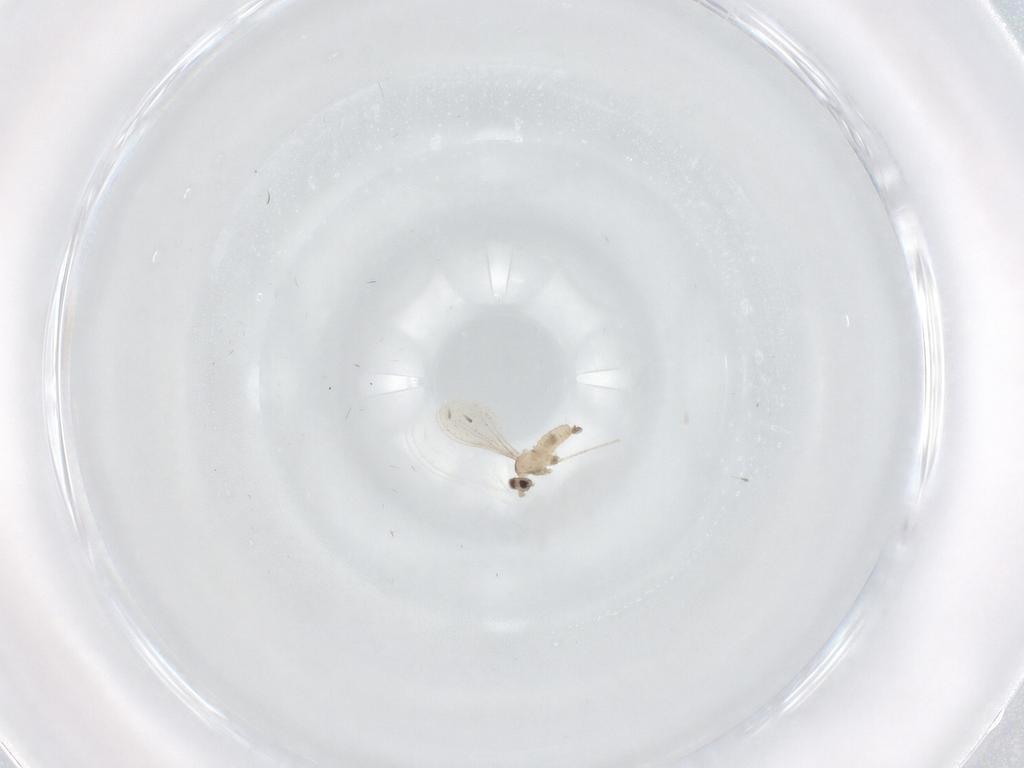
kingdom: Animalia
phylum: Arthropoda
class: Insecta
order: Diptera
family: Cecidomyiidae
